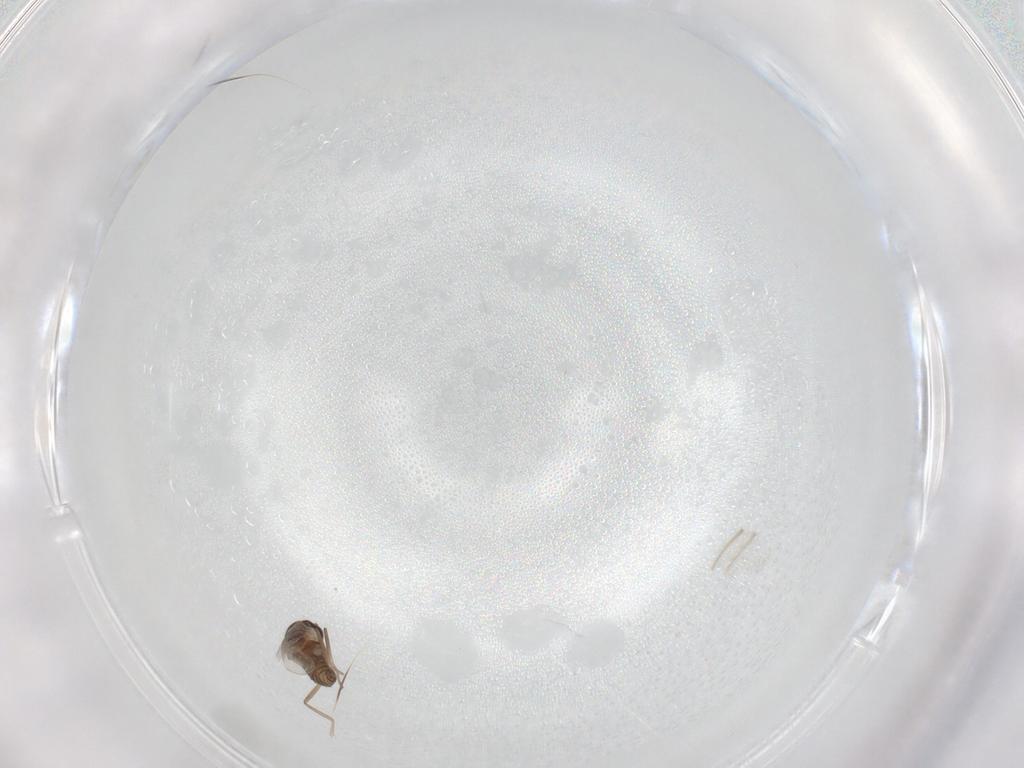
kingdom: Animalia
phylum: Arthropoda
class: Insecta
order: Diptera
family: Cecidomyiidae
